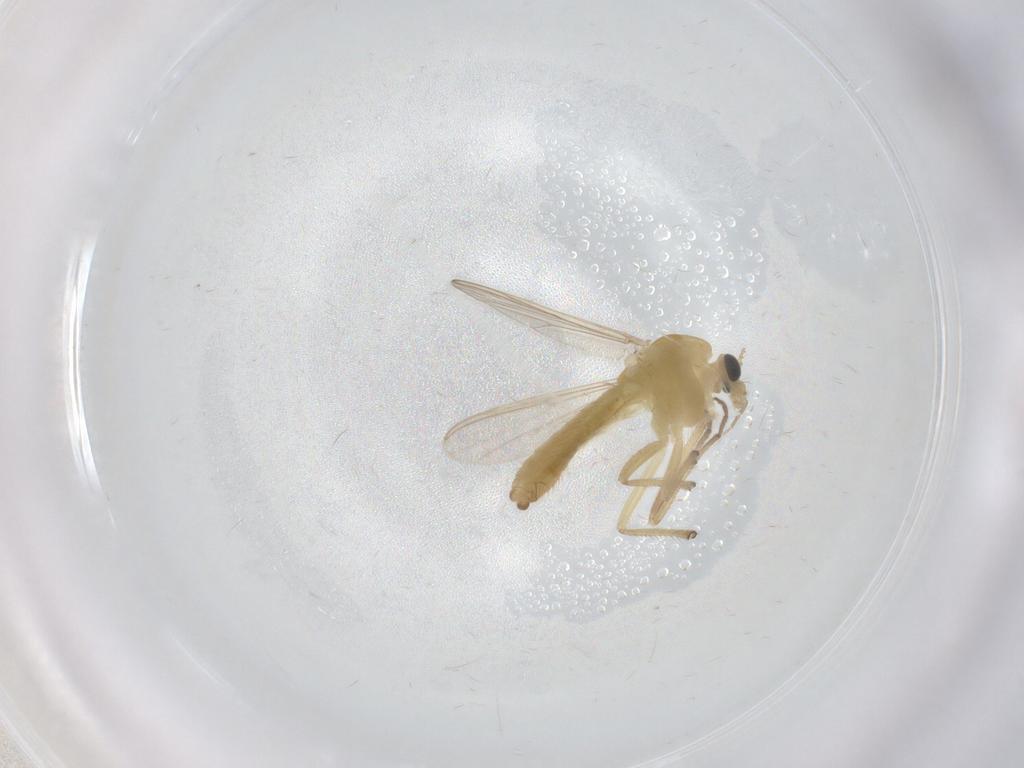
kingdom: Animalia
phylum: Arthropoda
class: Insecta
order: Diptera
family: Chironomidae
